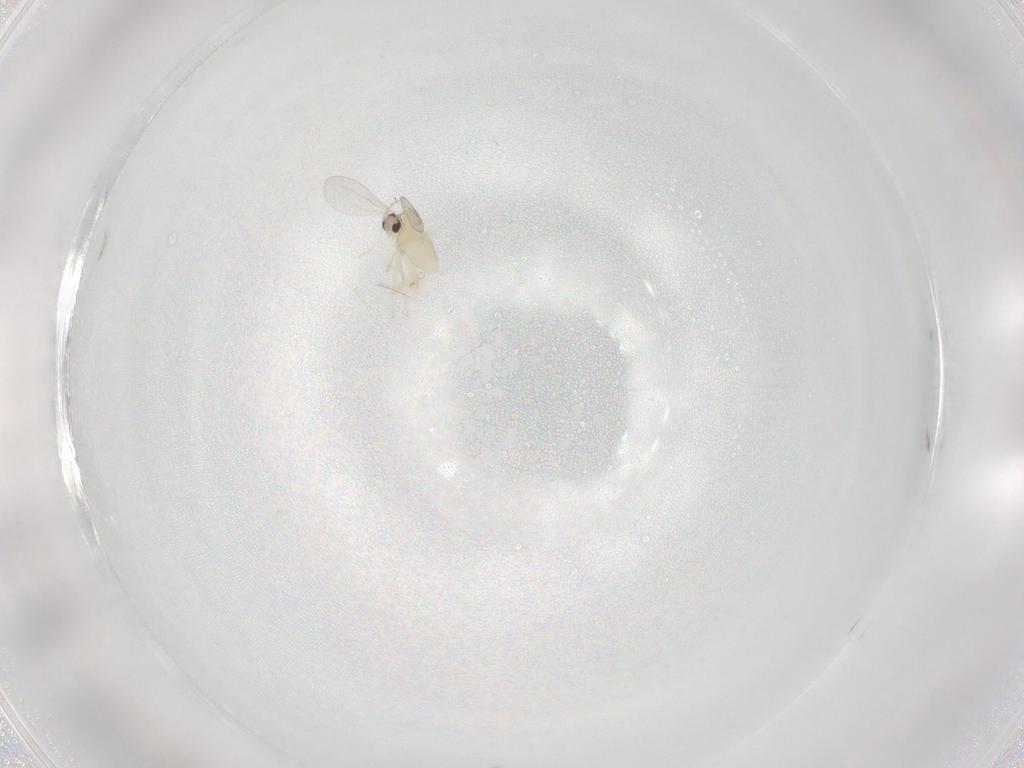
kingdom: Animalia
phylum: Arthropoda
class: Insecta
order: Diptera
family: Cecidomyiidae
